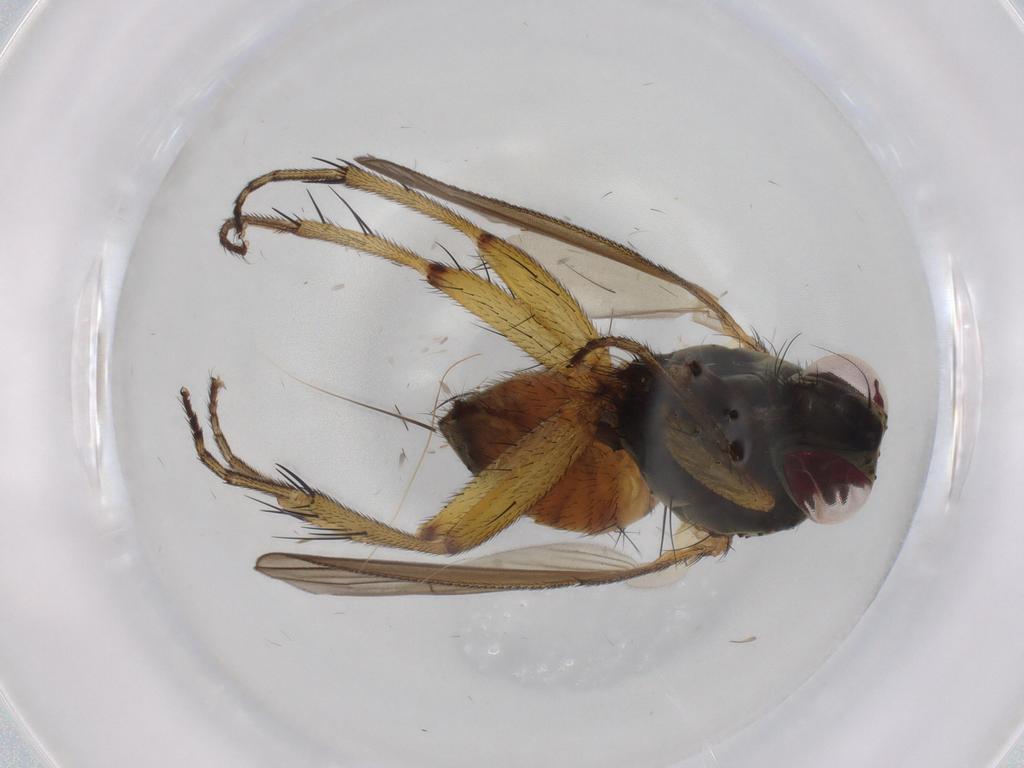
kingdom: Animalia
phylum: Arthropoda
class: Insecta
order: Diptera
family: Muscidae
